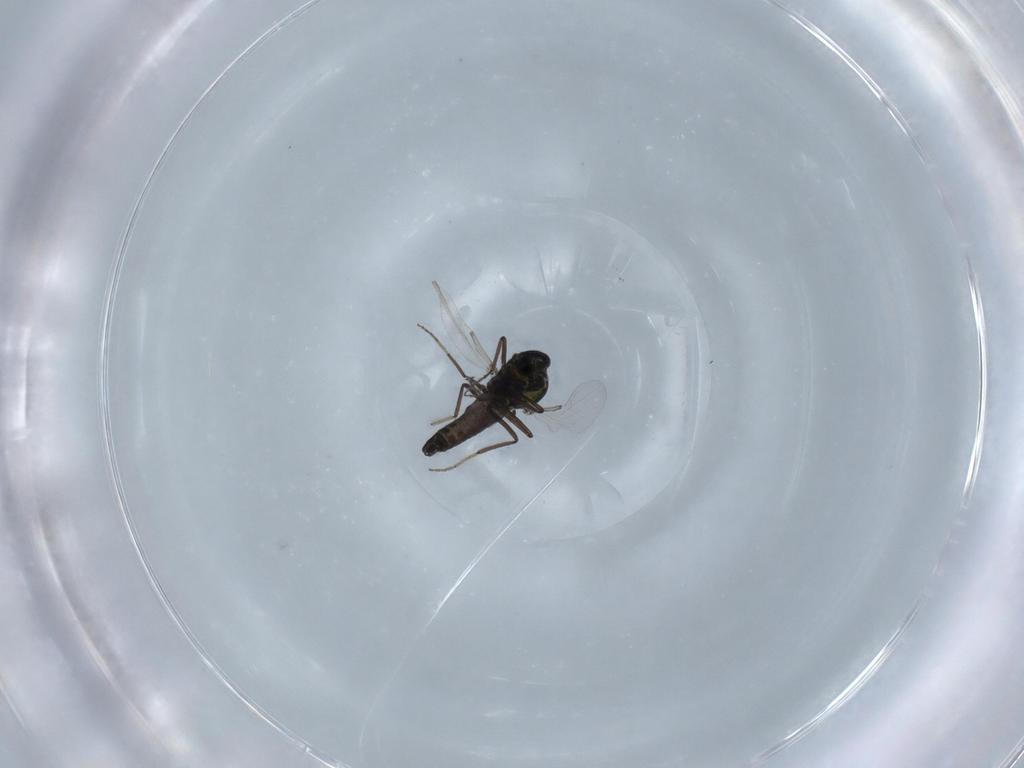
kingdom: Animalia
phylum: Arthropoda
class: Insecta
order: Diptera
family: Ceratopogonidae
